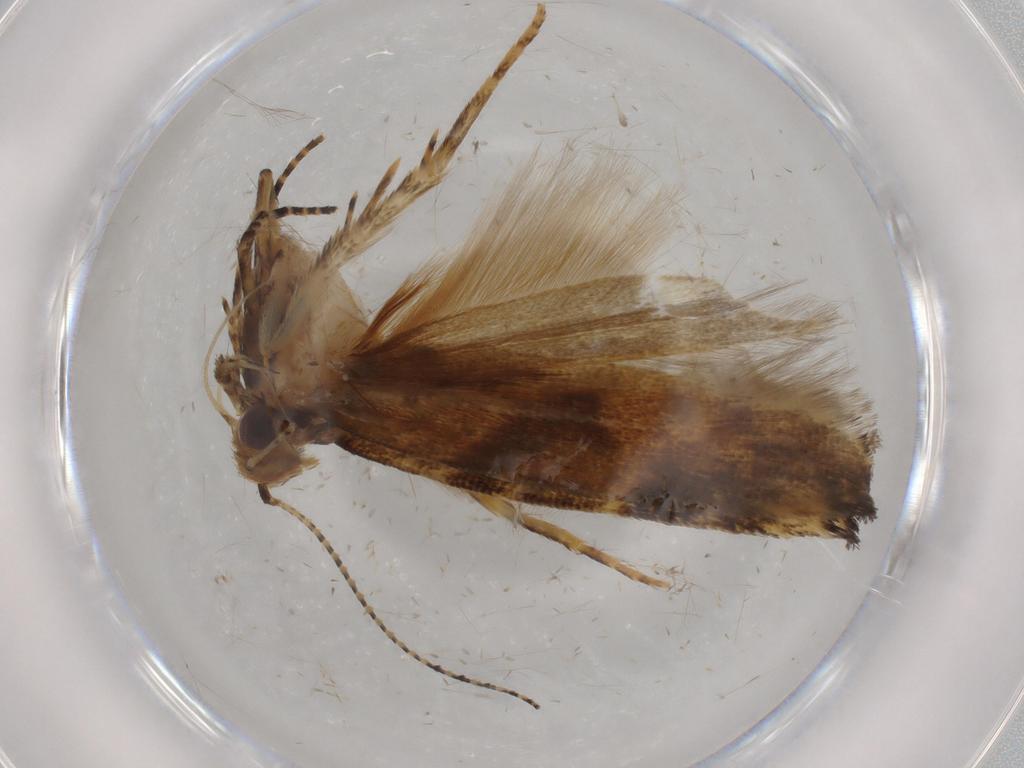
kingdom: Animalia
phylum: Arthropoda
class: Insecta
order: Lepidoptera
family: Gelechiidae
